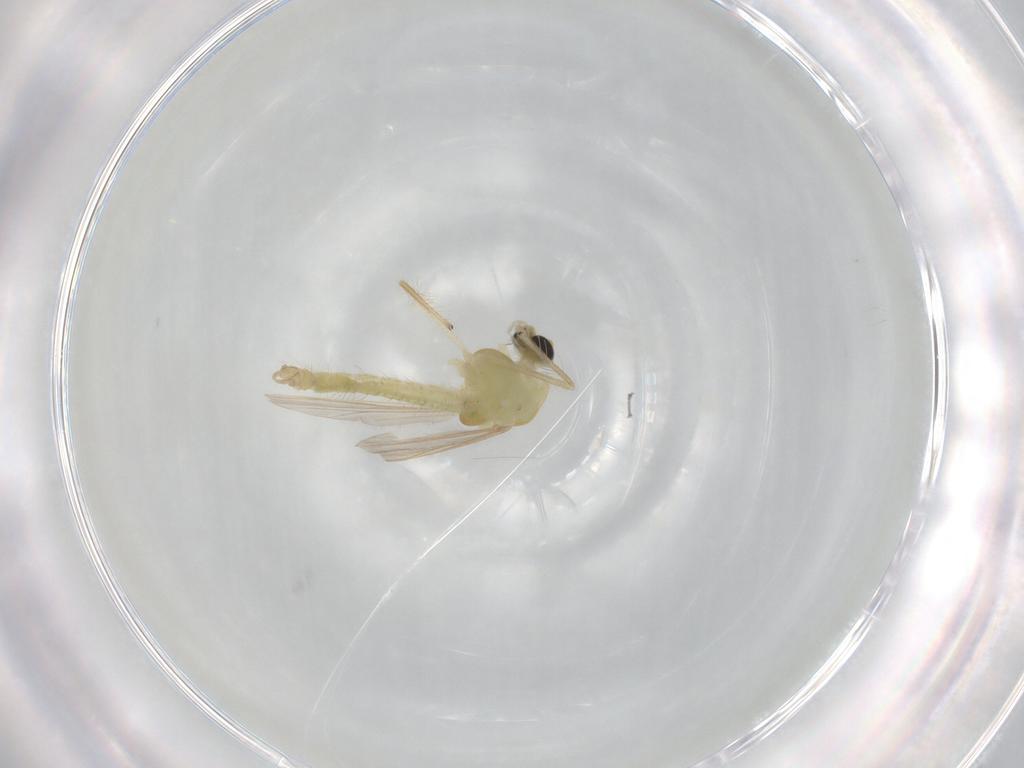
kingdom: Animalia
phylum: Arthropoda
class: Insecta
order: Diptera
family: Chironomidae
